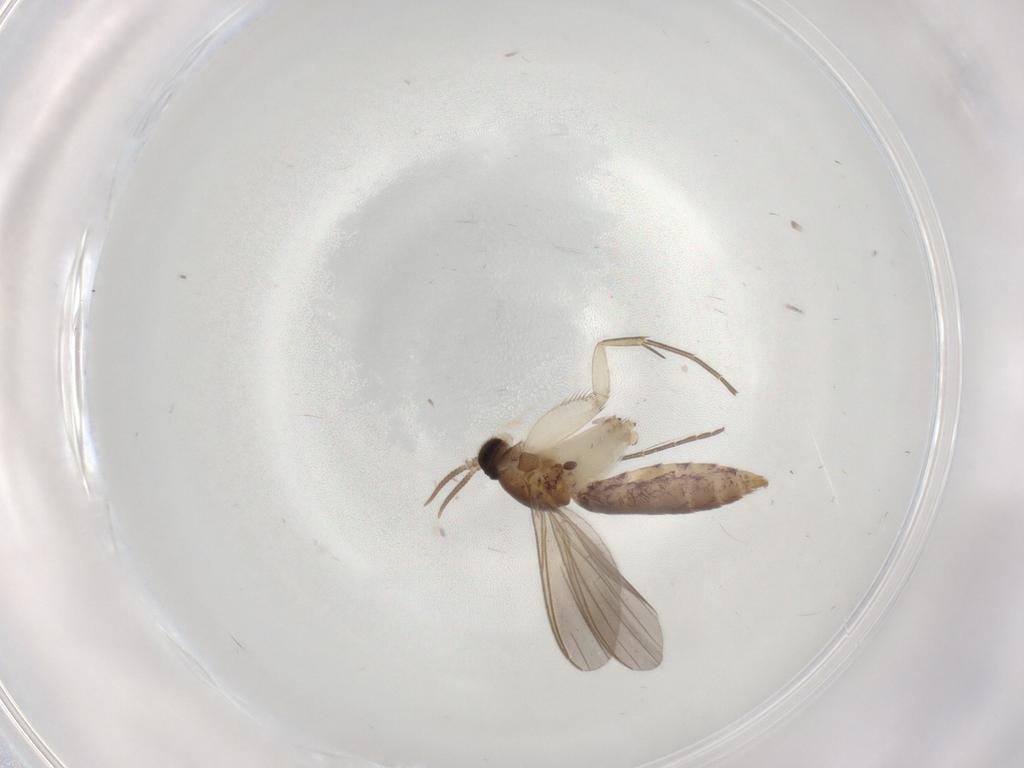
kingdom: Animalia
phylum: Arthropoda
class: Insecta
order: Diptera
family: Mycetophilidae
